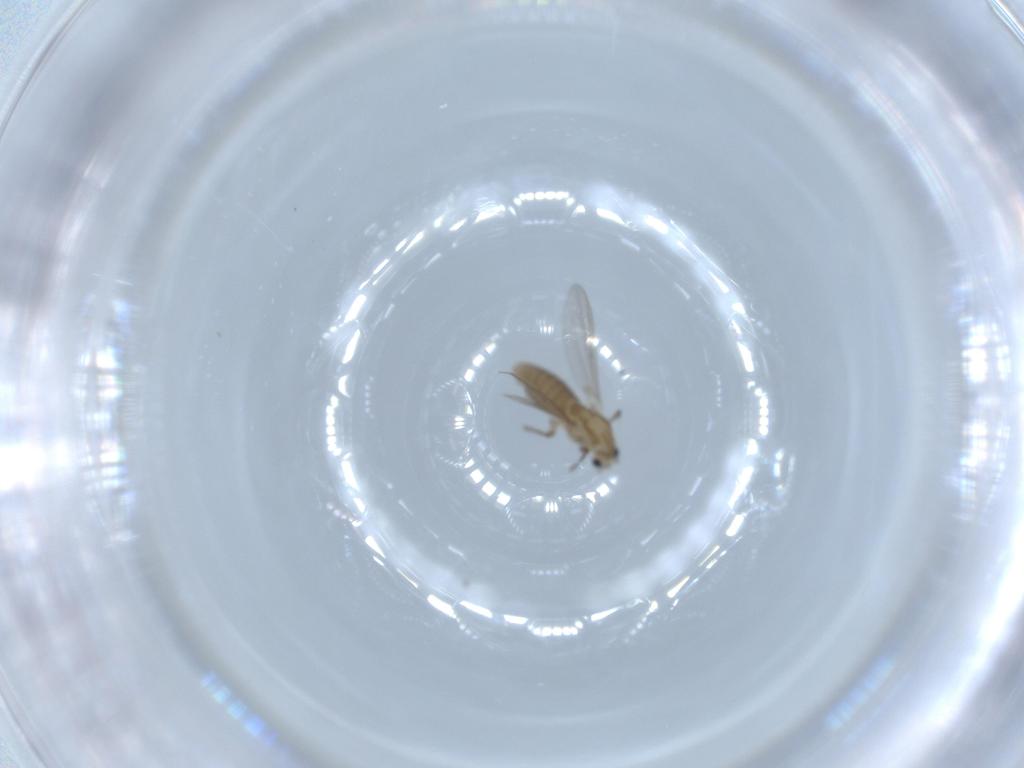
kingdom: Animalia
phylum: Arthropoda
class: Insecta
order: Diptera
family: Chironomidae
